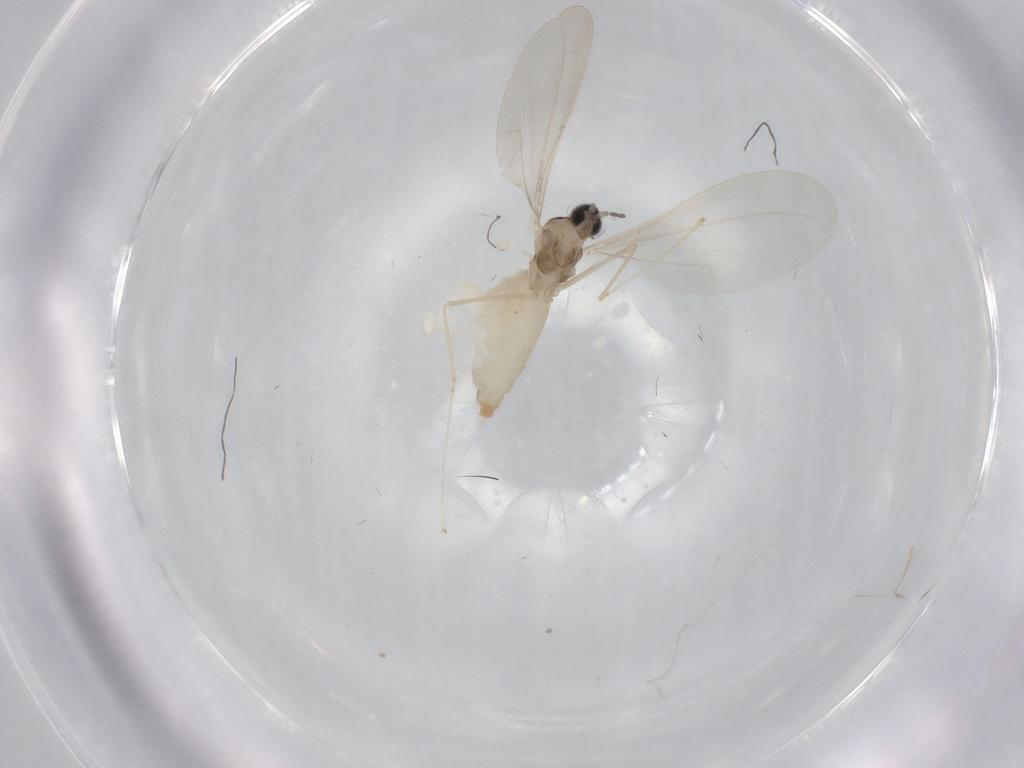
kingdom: Animalia
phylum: Arthropoda
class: Insecta
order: Diptera
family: Cecidomyiidae
